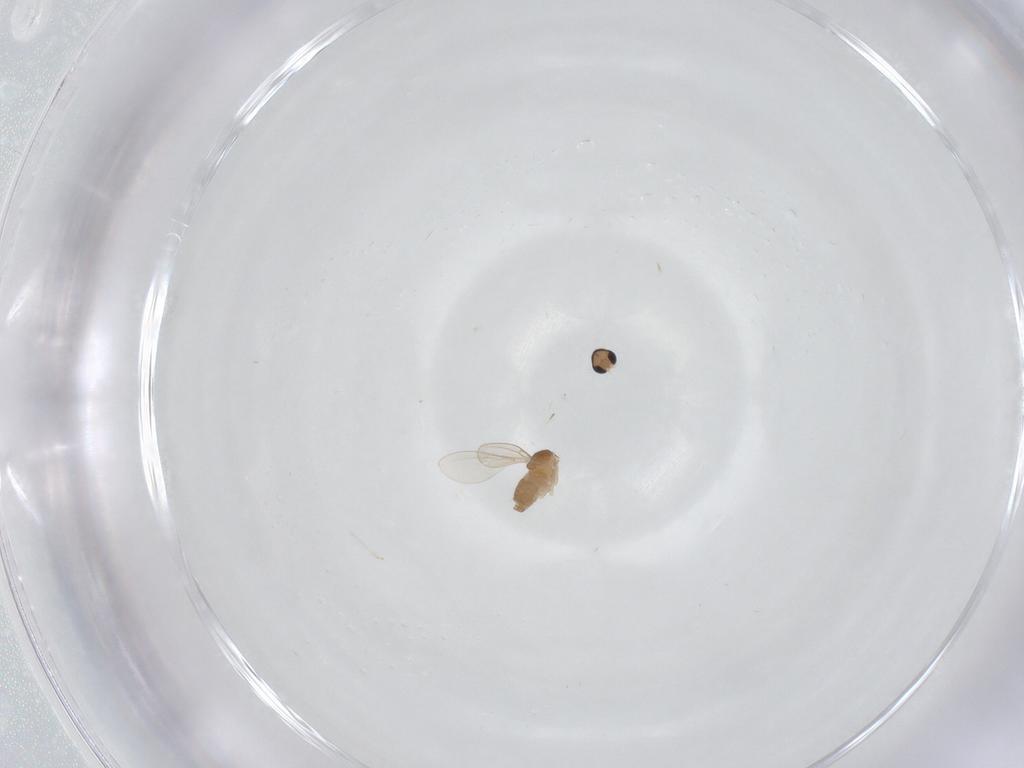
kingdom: Animalia
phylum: Arthropoda
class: Insecta
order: Diptera
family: Cecidomyiidae
